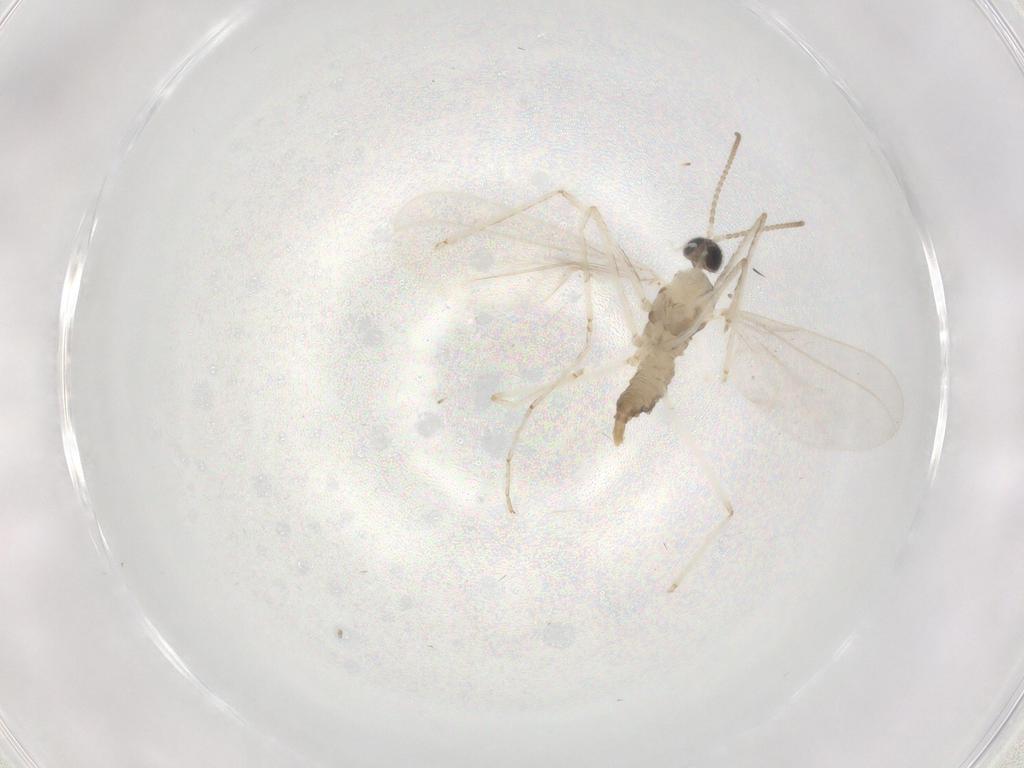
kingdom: Animalia
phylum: Arthropoda
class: Insecta
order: Diptera
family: Cecidomyiidae
